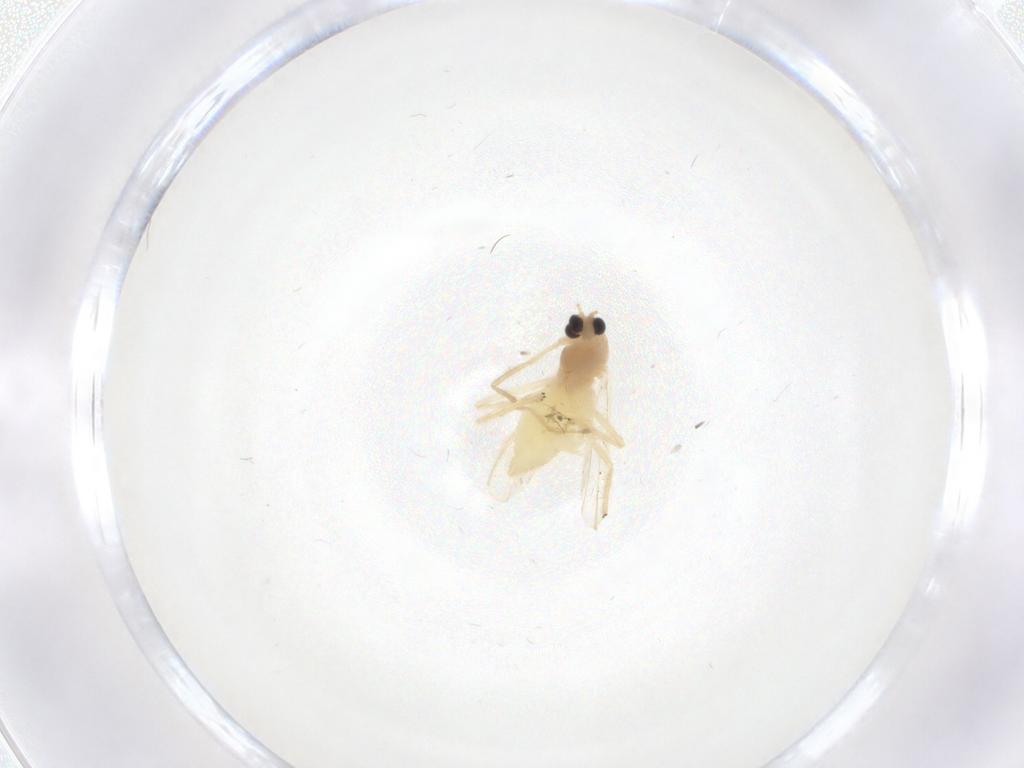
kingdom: Animalia
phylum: Arthropoda
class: Insecta
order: Diptera
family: Chironomidae
